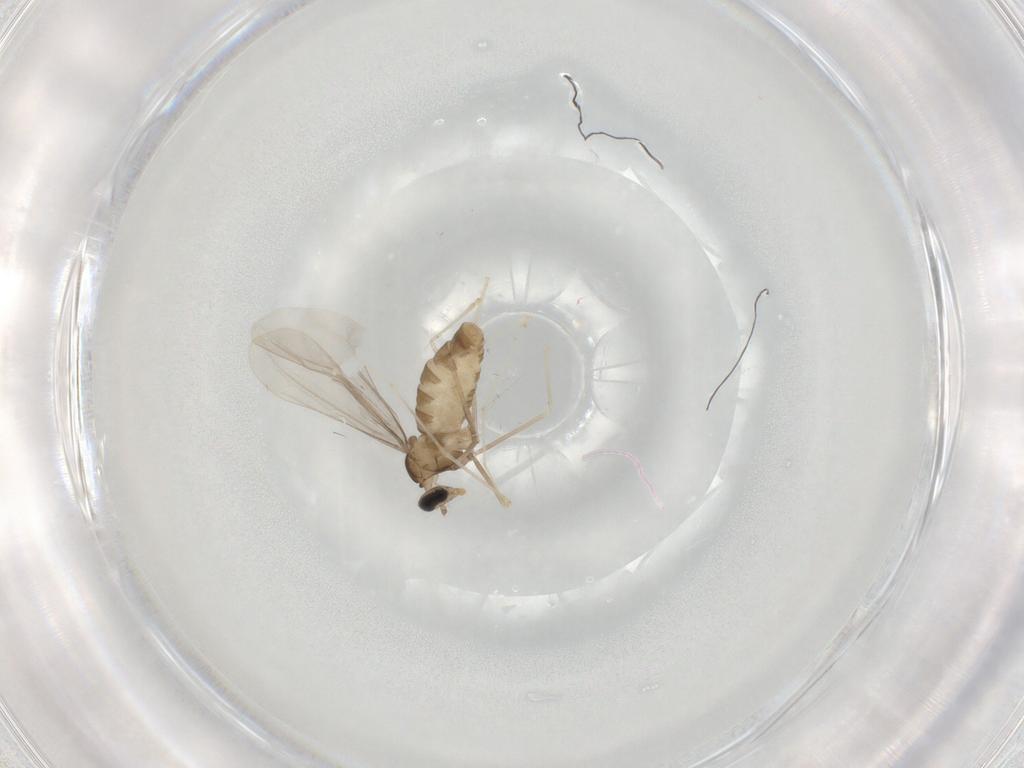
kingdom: Animalia
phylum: Arthropoda
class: Insecta
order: Diptera
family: Cecidomyiidae
